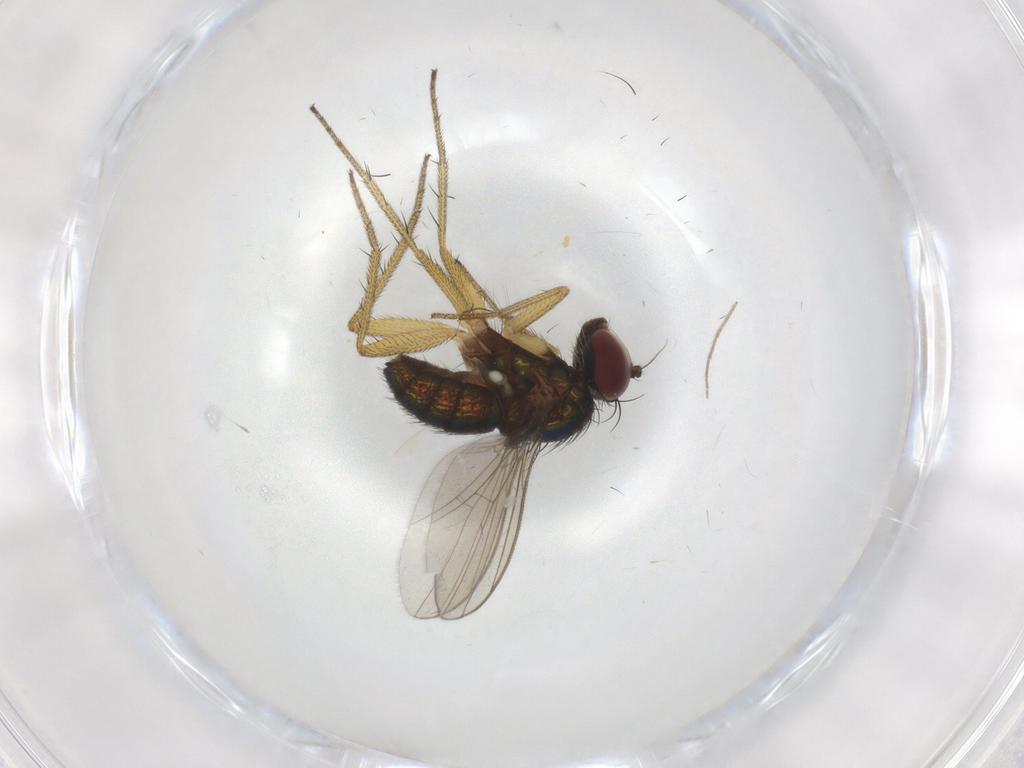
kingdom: Animalia
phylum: Arthropoda
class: Insecta
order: Diptera
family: Chironomidae
